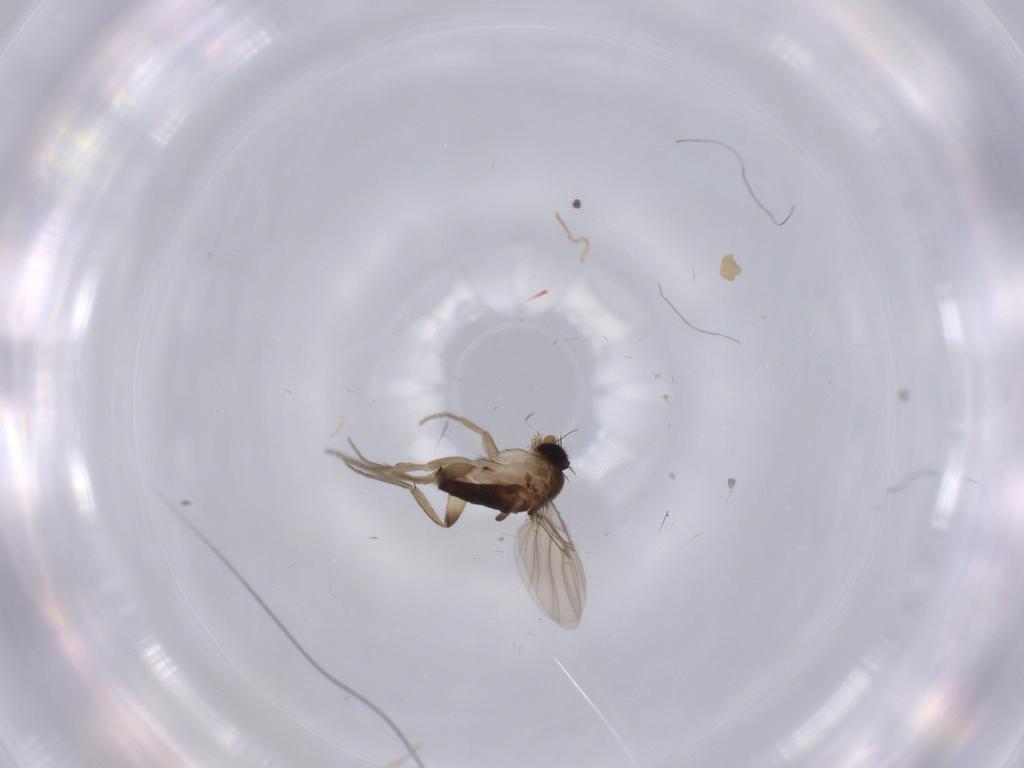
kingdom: Animalia
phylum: Arthropoda
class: Insecta
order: Diptera
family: Phoridae
